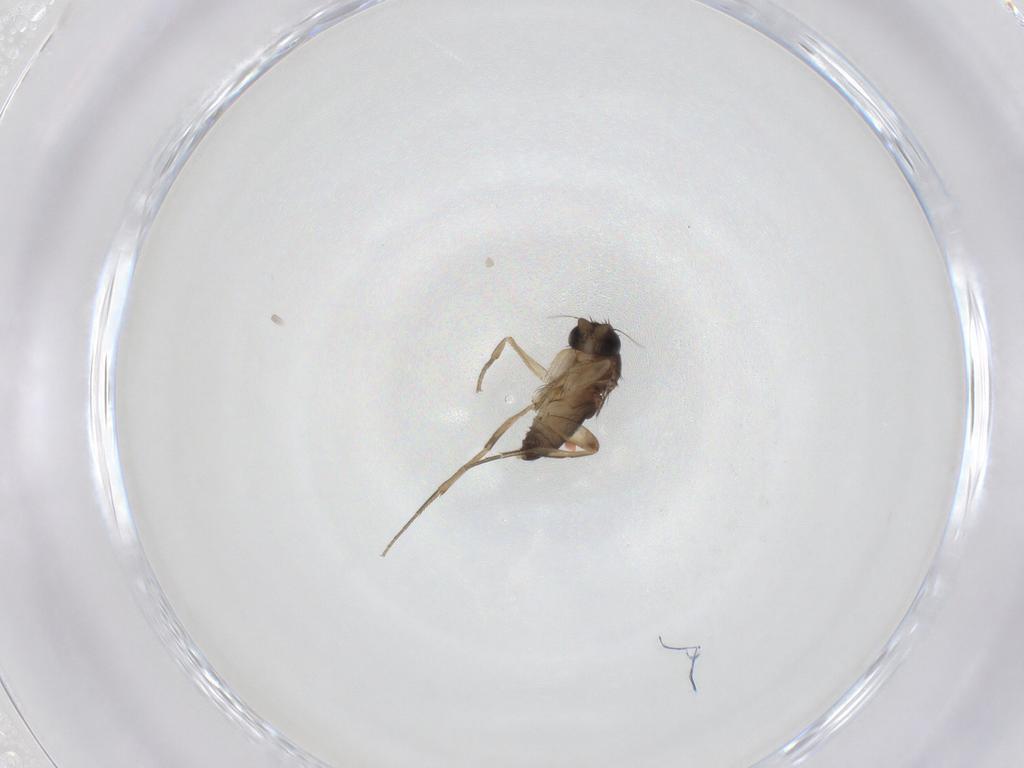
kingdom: Animalia
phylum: Arthropoda
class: Insecta
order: Diptera
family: Phoridae
